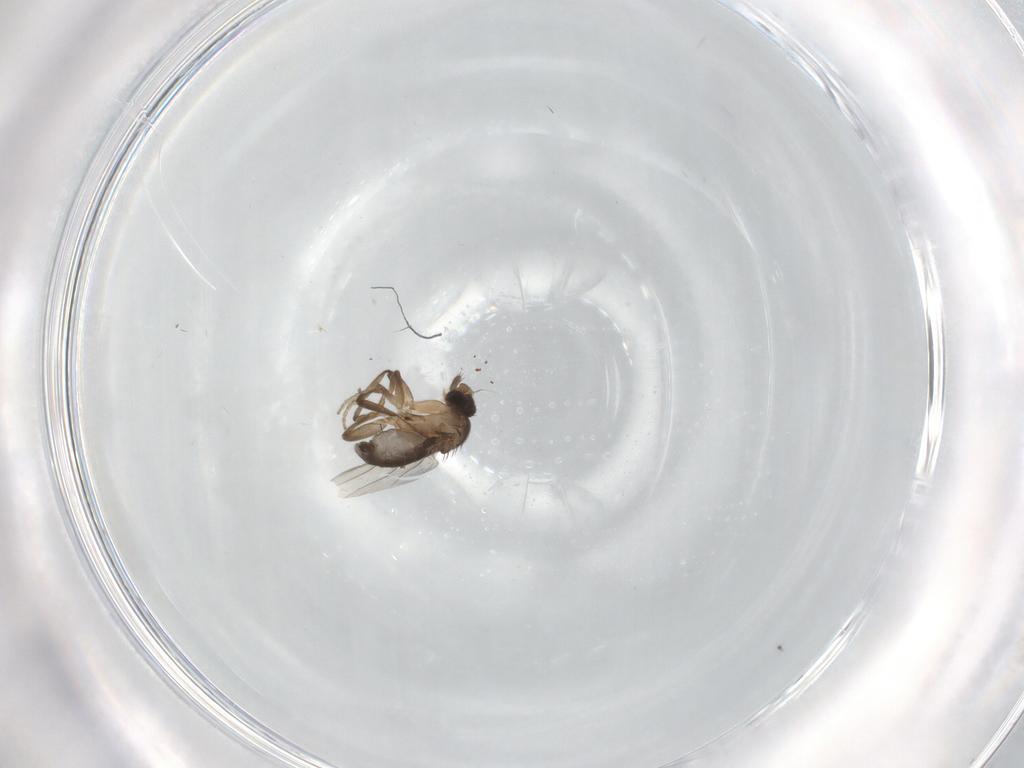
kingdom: Animalia
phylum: Arthropoda
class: Insecta
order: Diptera
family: Phoridae
